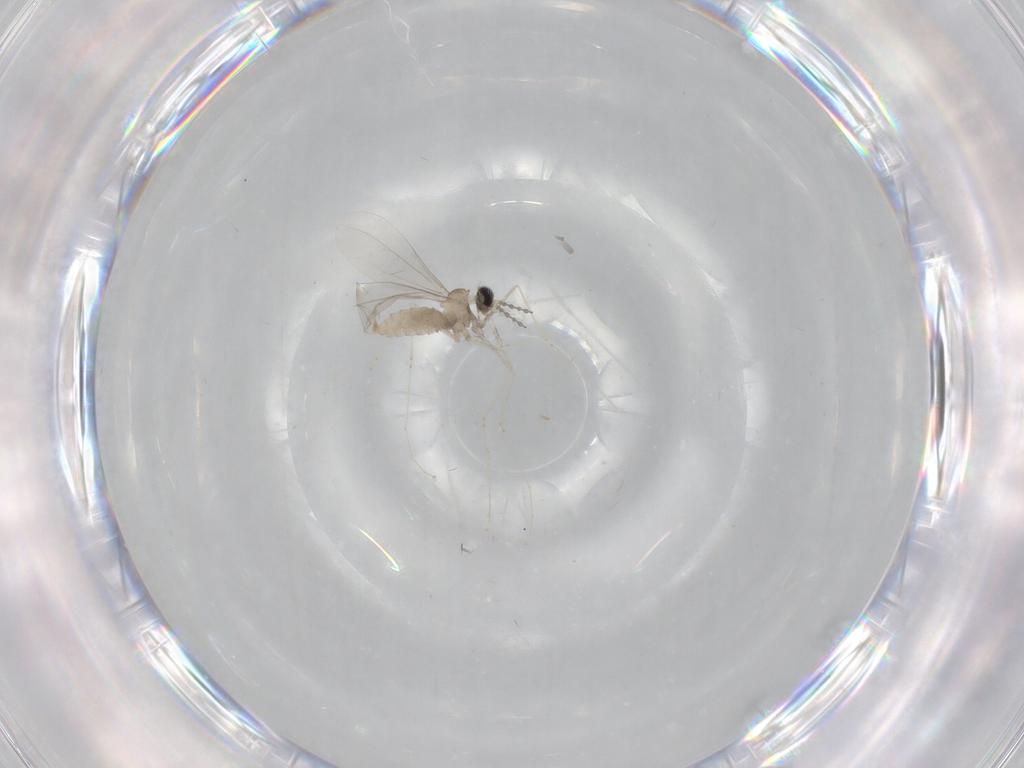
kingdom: Animalia
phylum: Arthropoda
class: Insecta
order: Diptera
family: Cecidomyiidae
